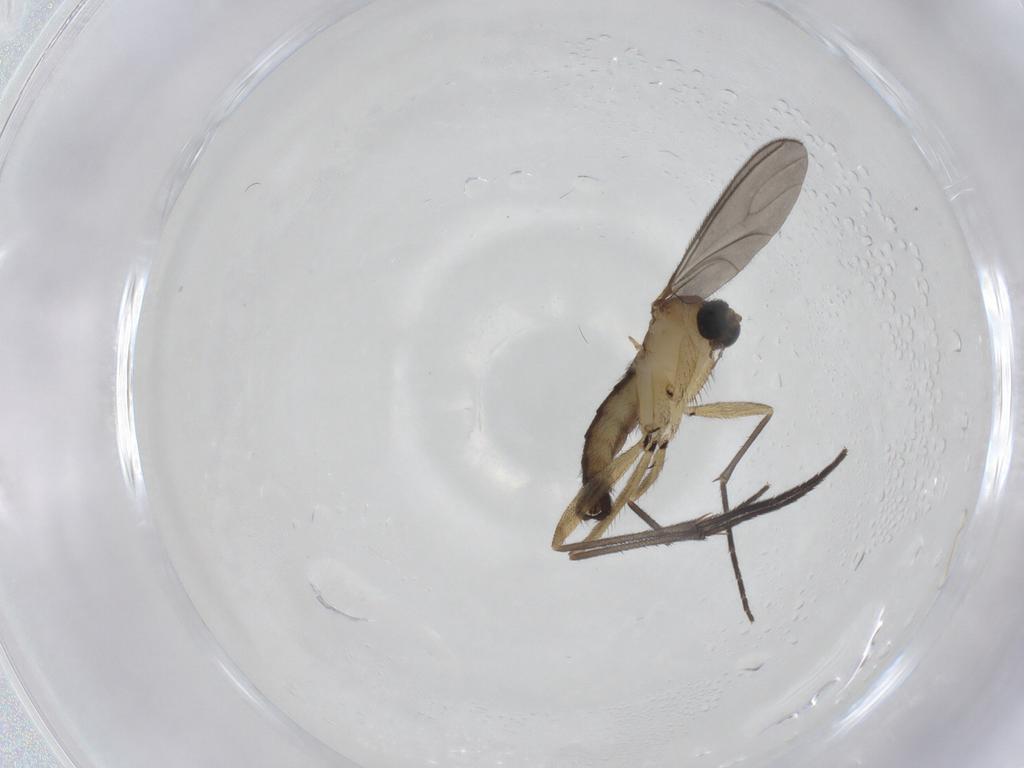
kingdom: Animalia
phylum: Arthropoda
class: Insecta
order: Diptera
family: Sciaridae
